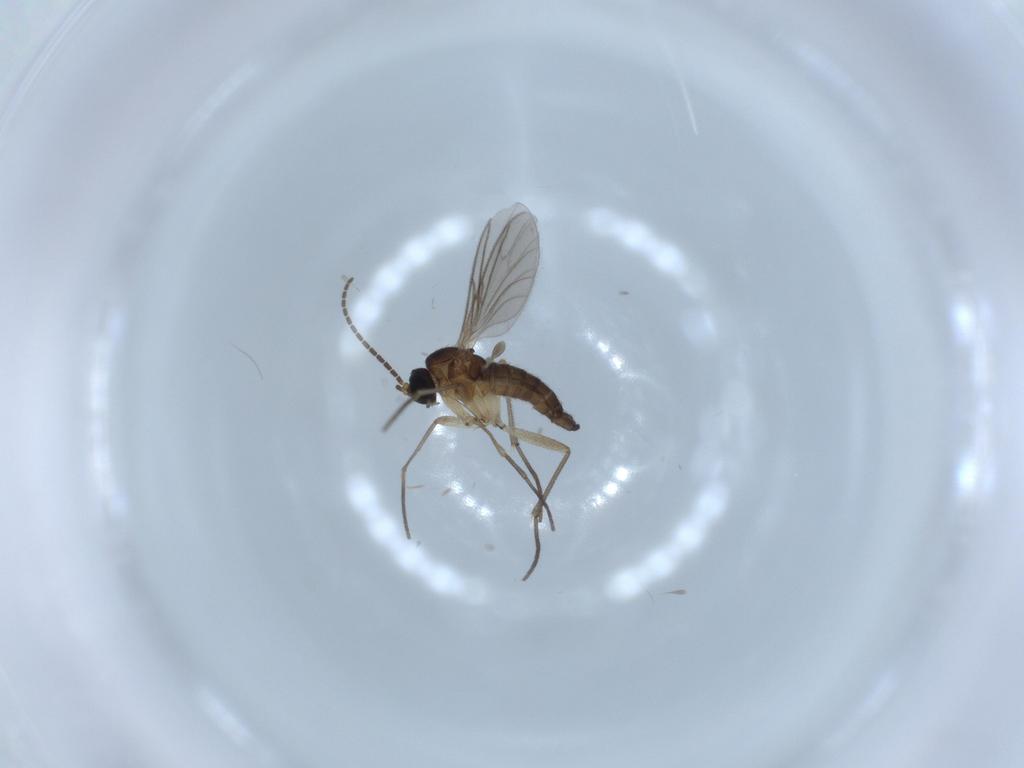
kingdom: Animalia
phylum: Arthropoda
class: Insecta
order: Diptera
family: Sciaridae
